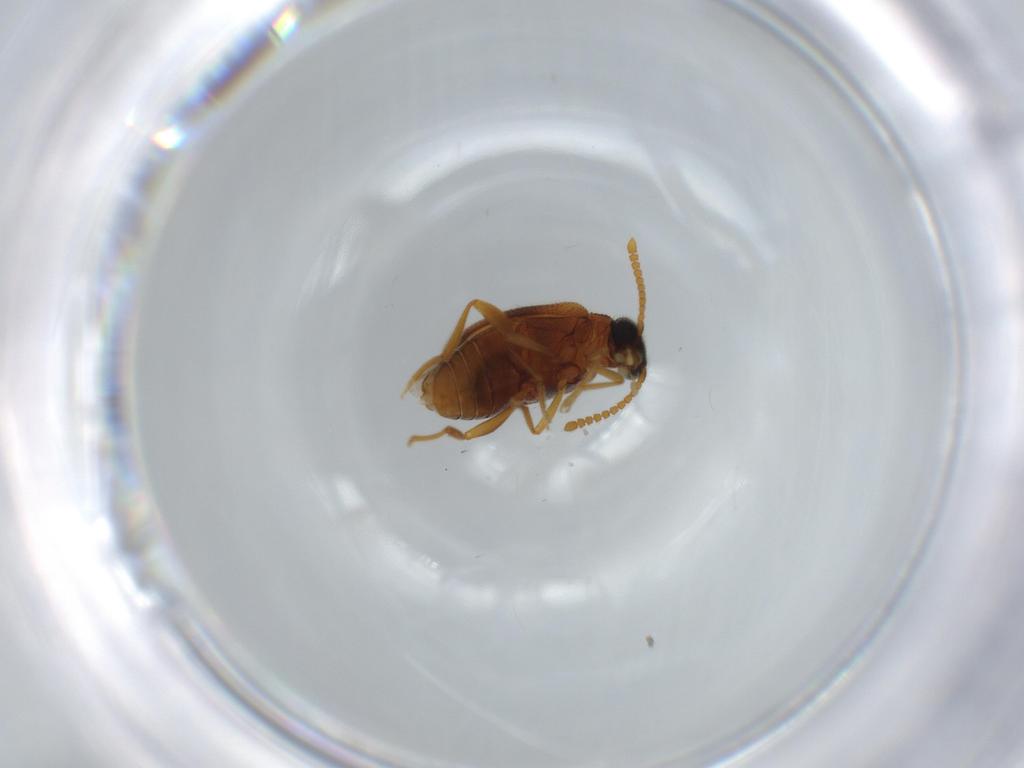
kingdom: Animalia
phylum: Arthropoda
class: Insecta
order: Coleoptera
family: Aderidae
